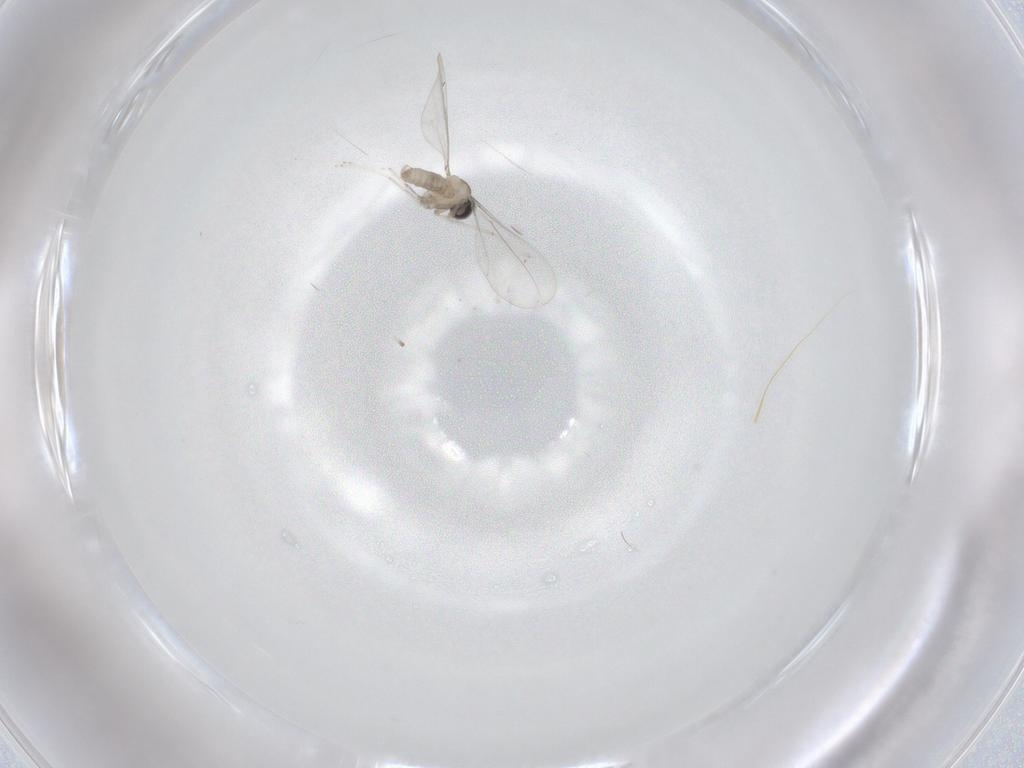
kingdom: Animalia
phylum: Arthropoda
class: Insecta
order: Diptera
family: Cecidomyiidae
